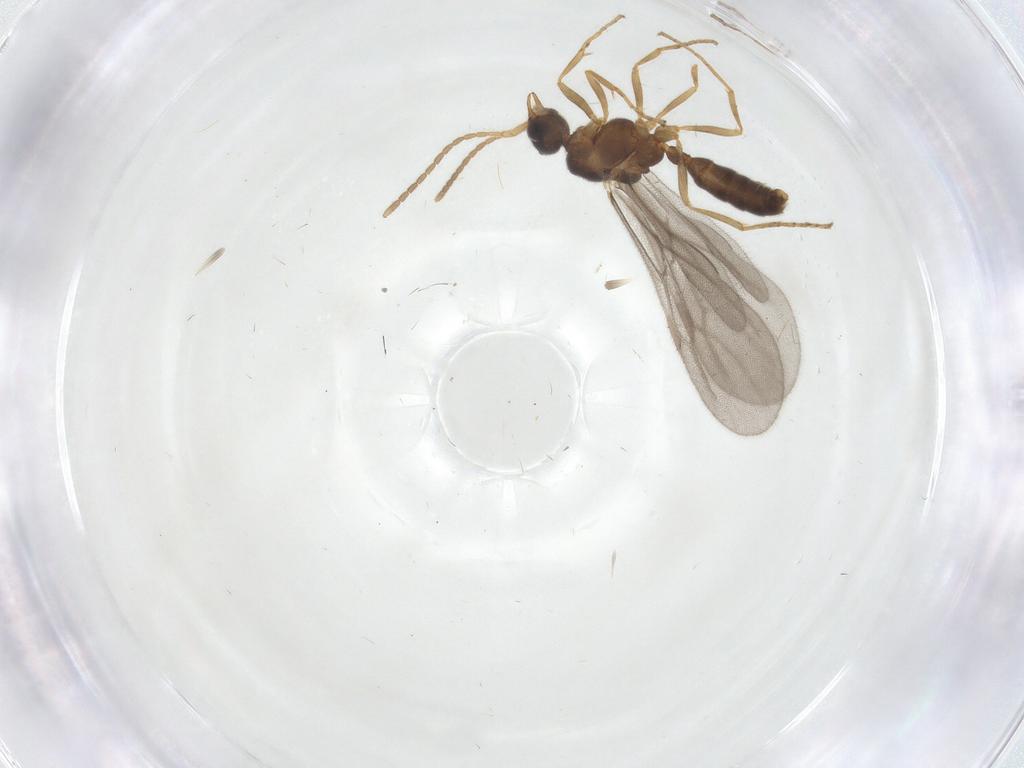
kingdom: Animalia
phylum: Arthropoda
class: Insecta
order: Hymenoptera
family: Formicidae
